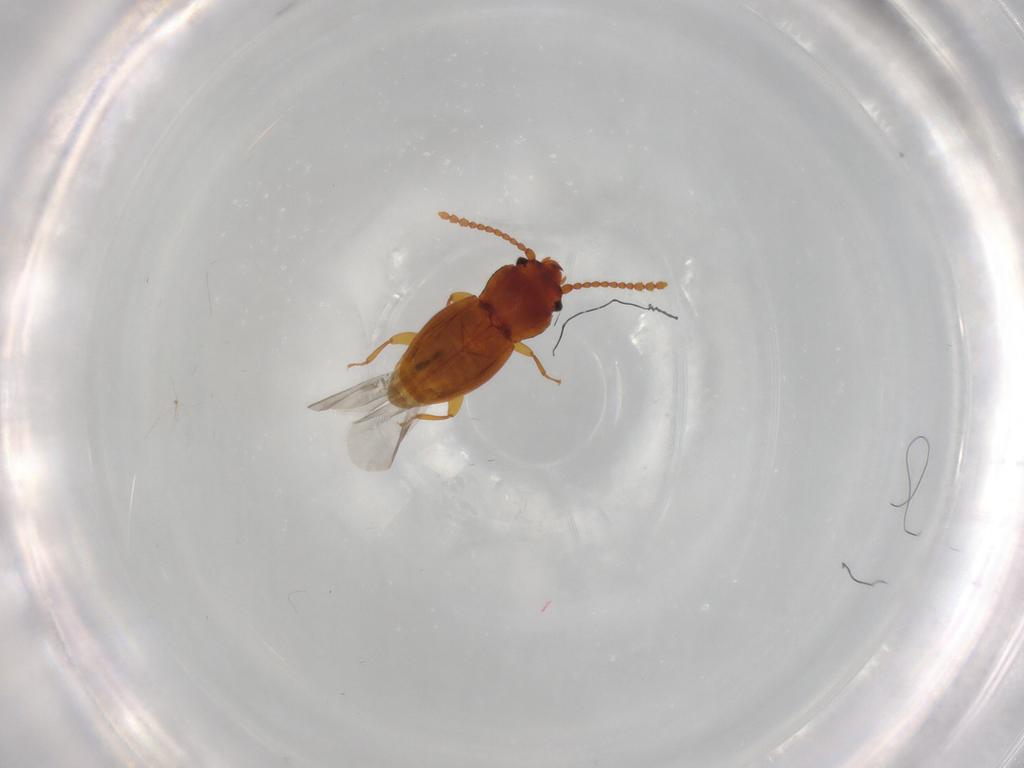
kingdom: Animalia
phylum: Arthropoda
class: Insecta
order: Coleoptera
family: Laemophloeidae
